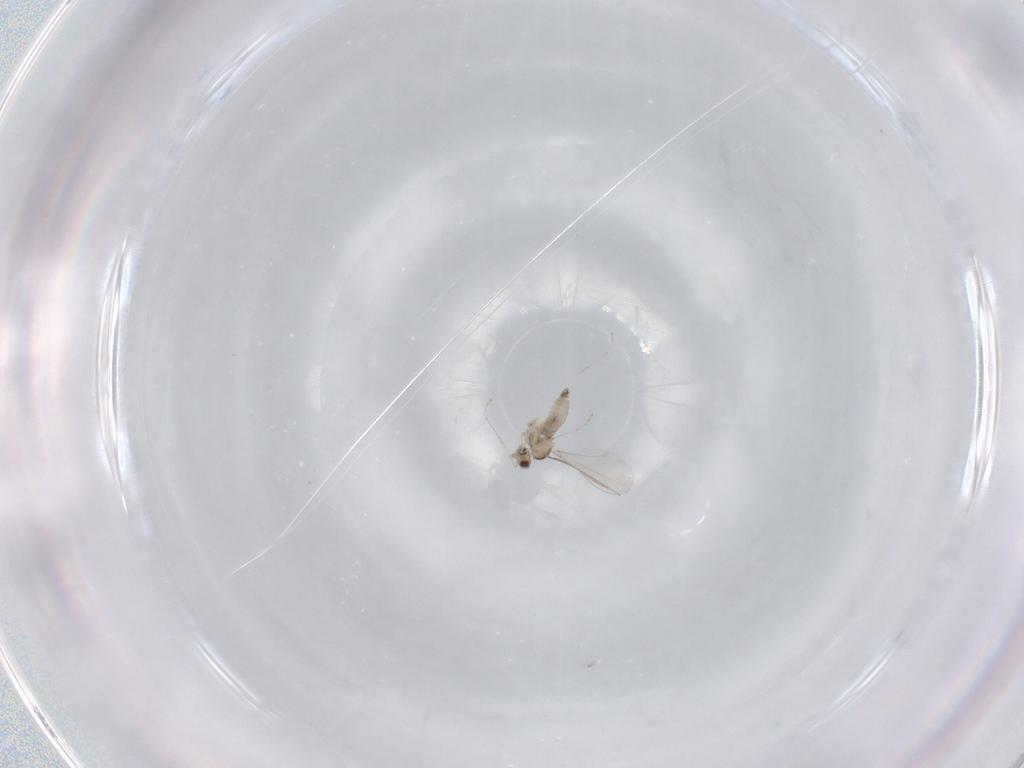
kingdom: Animalia
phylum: Arthropoda
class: Insecta
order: Diptera
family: Cecidomyiidae
